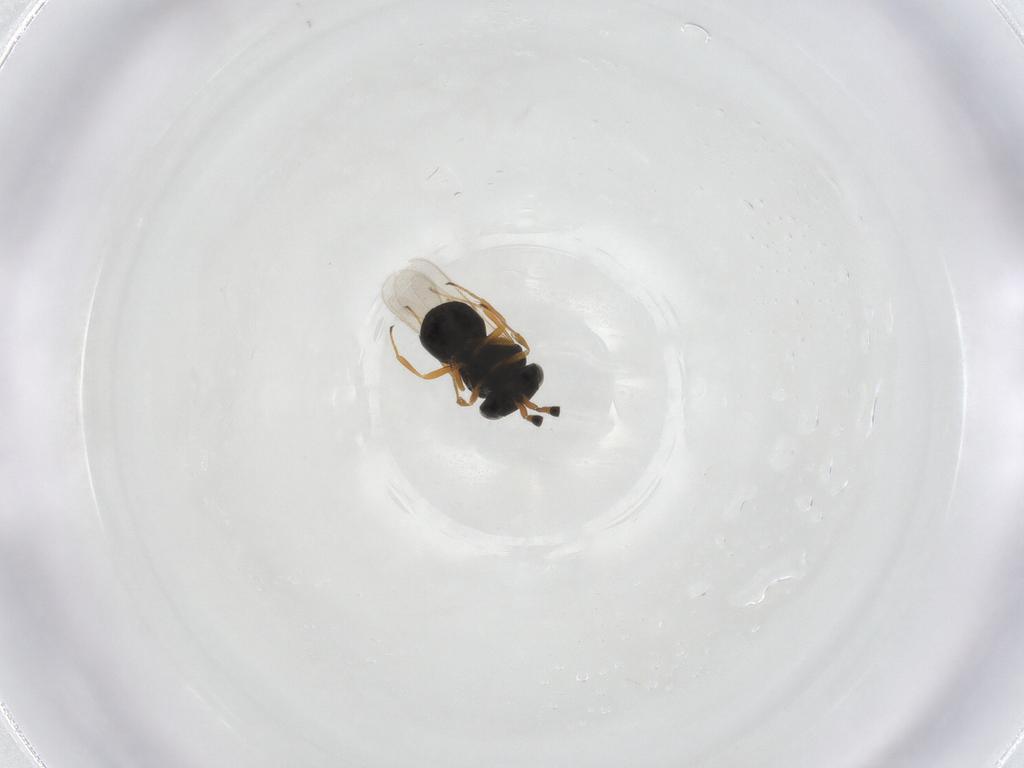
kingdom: Animalia
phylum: Arthropoda
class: Insecta
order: Hymenoptera
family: Scelionidae
